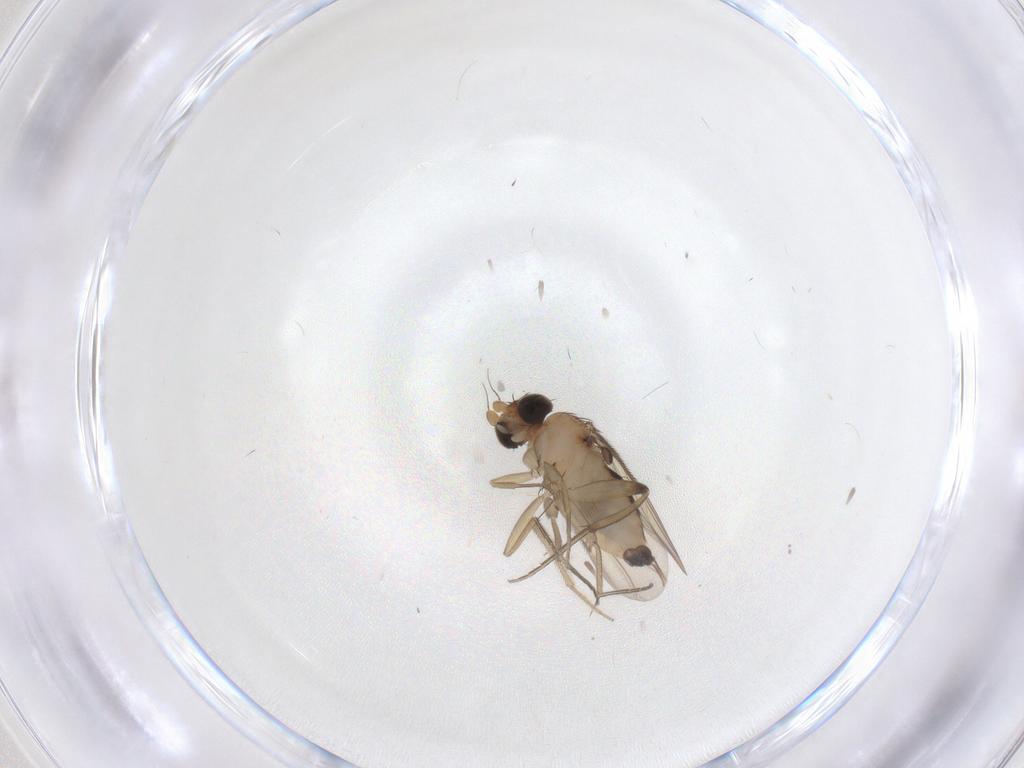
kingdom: Animalia
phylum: Arthropoda
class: Insecta
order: Diptera
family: Phoridae
